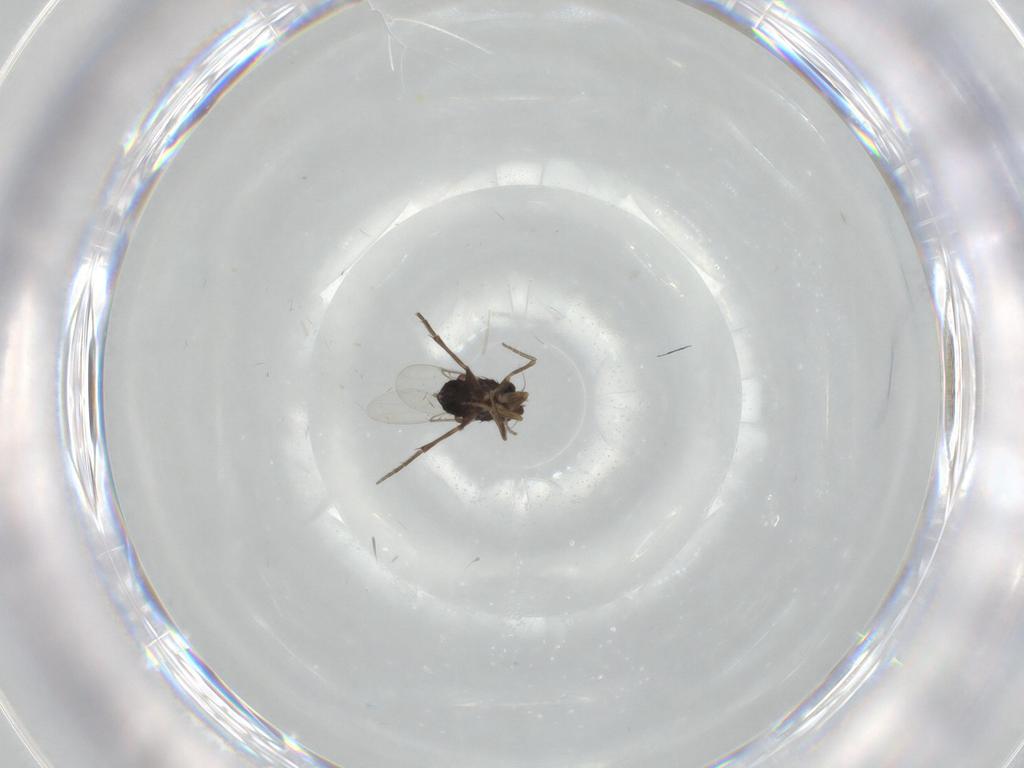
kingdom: Animalia
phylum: Arthropoda
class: Insecta
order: Diptera
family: Phoridae
